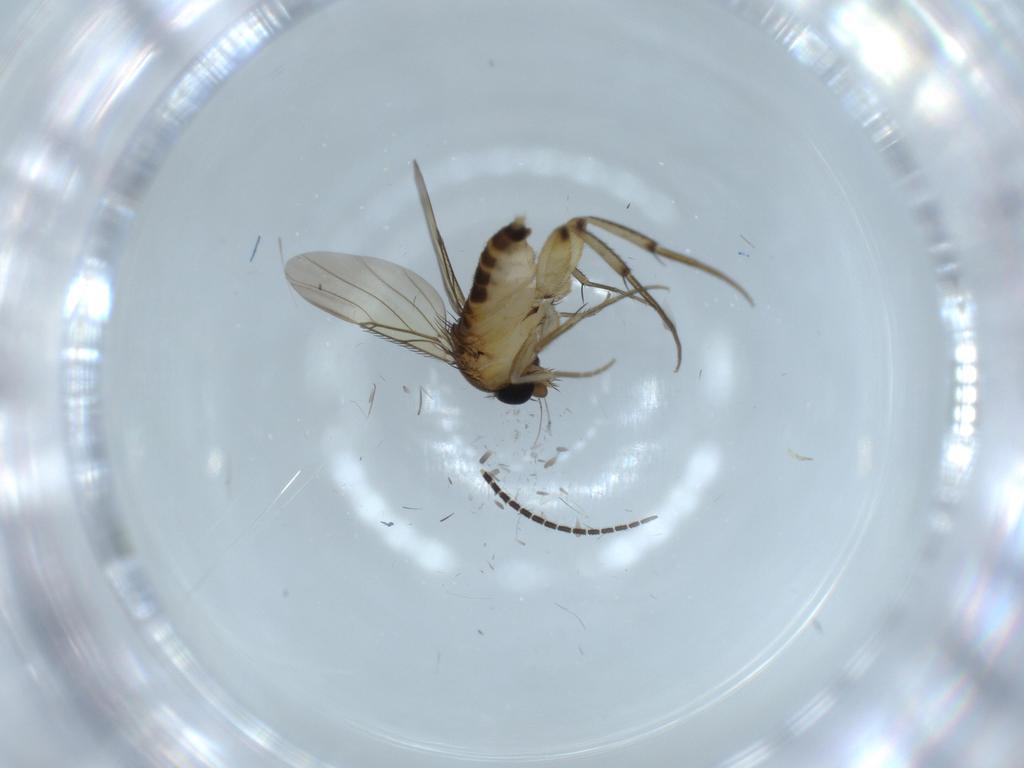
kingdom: Animalia
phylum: Arthropoda
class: Insecta
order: Diptera
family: Phoridae
